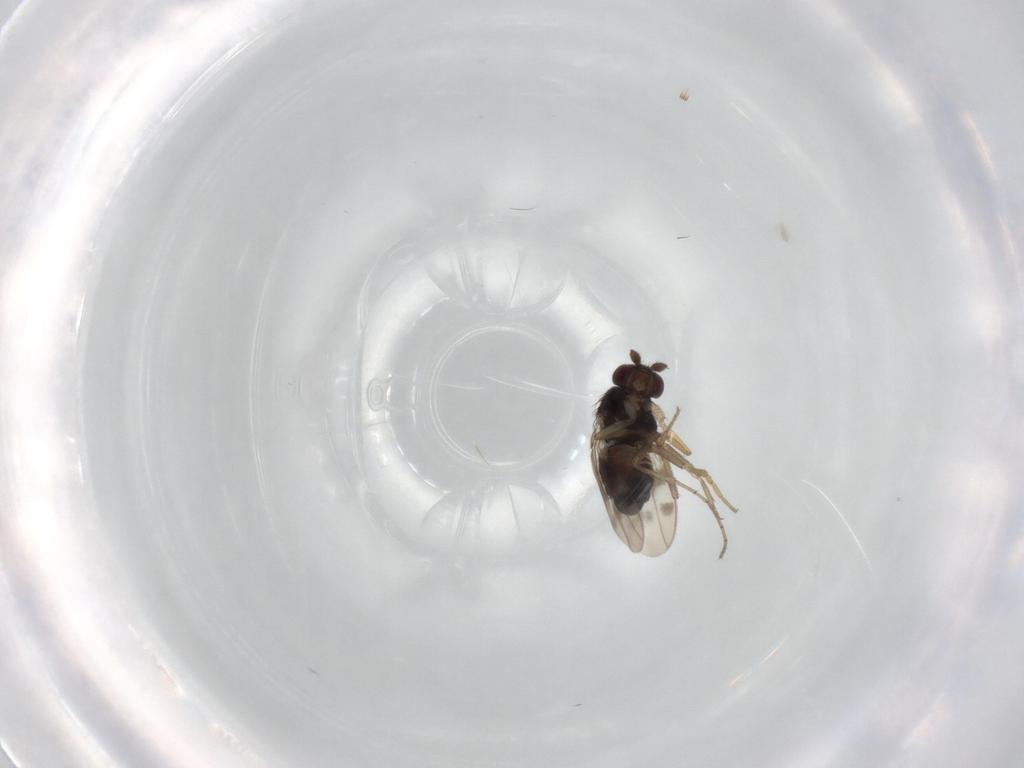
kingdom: Animalia
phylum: Arthropoda
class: Insecta
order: Diptera
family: Sphaeroceridae
